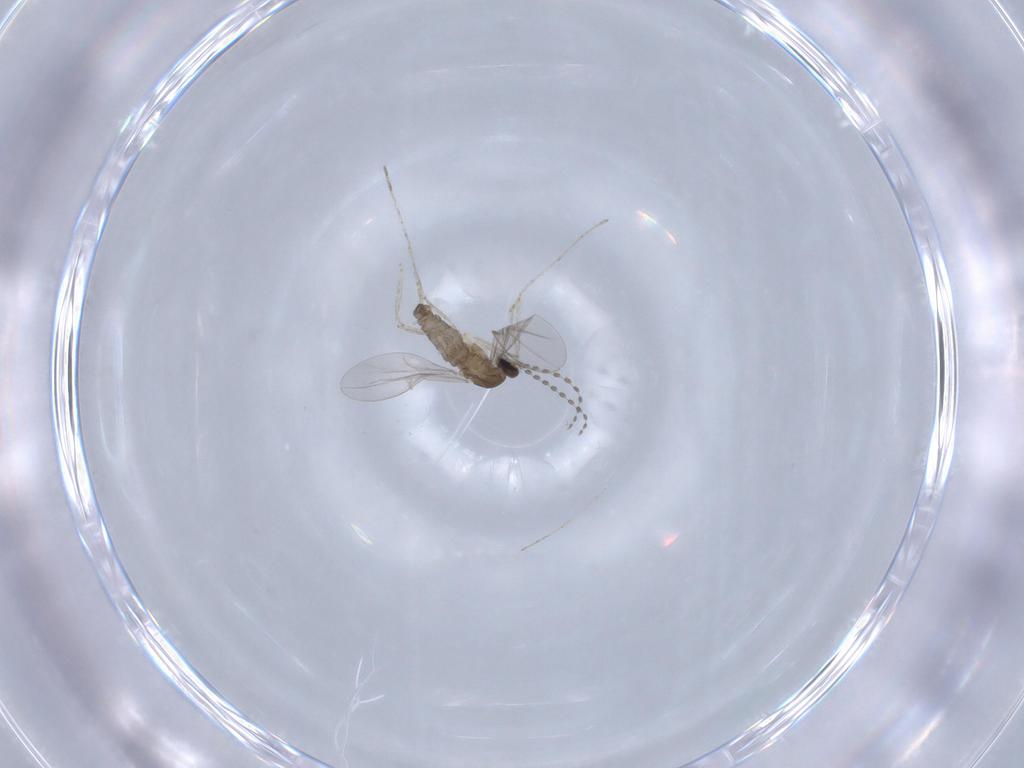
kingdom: Animalia
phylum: Arthropoda
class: Insecta
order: Diptera
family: Cecidomyiidae
